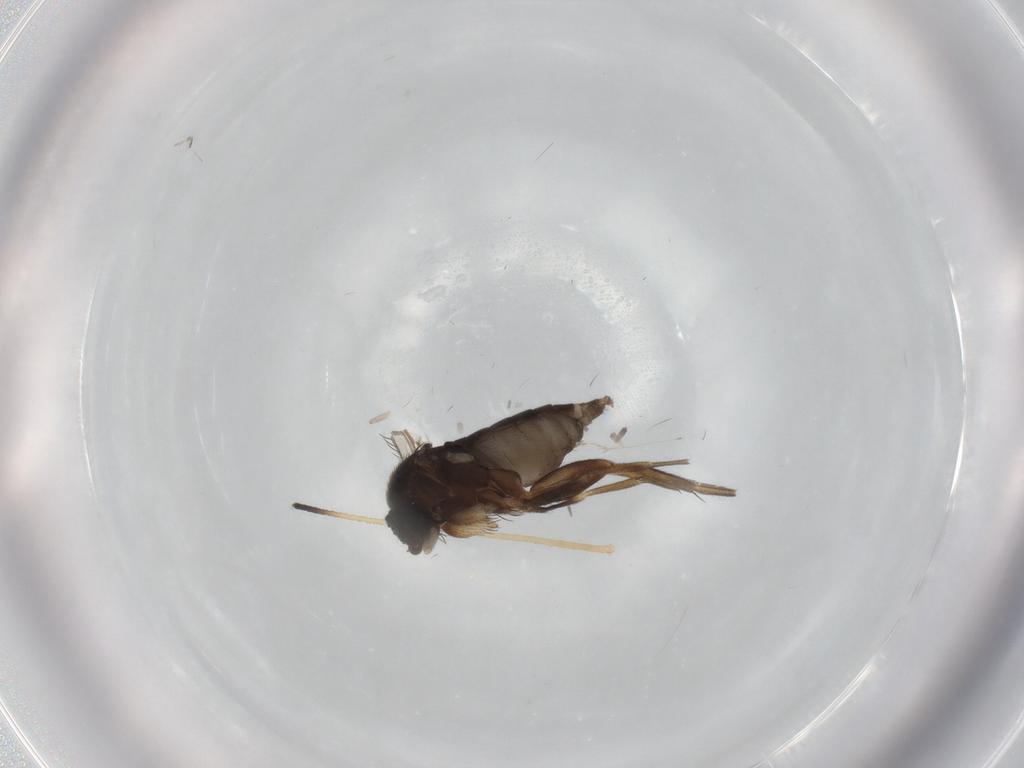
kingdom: Animalia
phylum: Arthropoda
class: Insecta
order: Diptera
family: Phoridae
